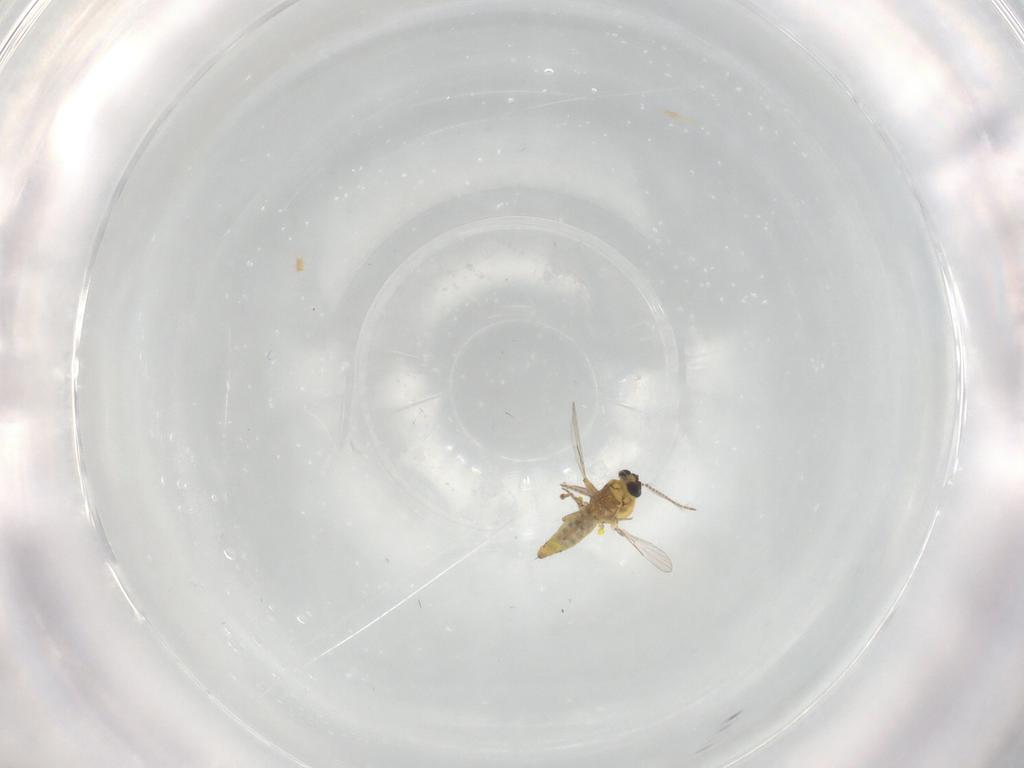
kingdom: Animalia
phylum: Arthropoda
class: Insecta
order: Diptera
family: Ceratopogonidae
